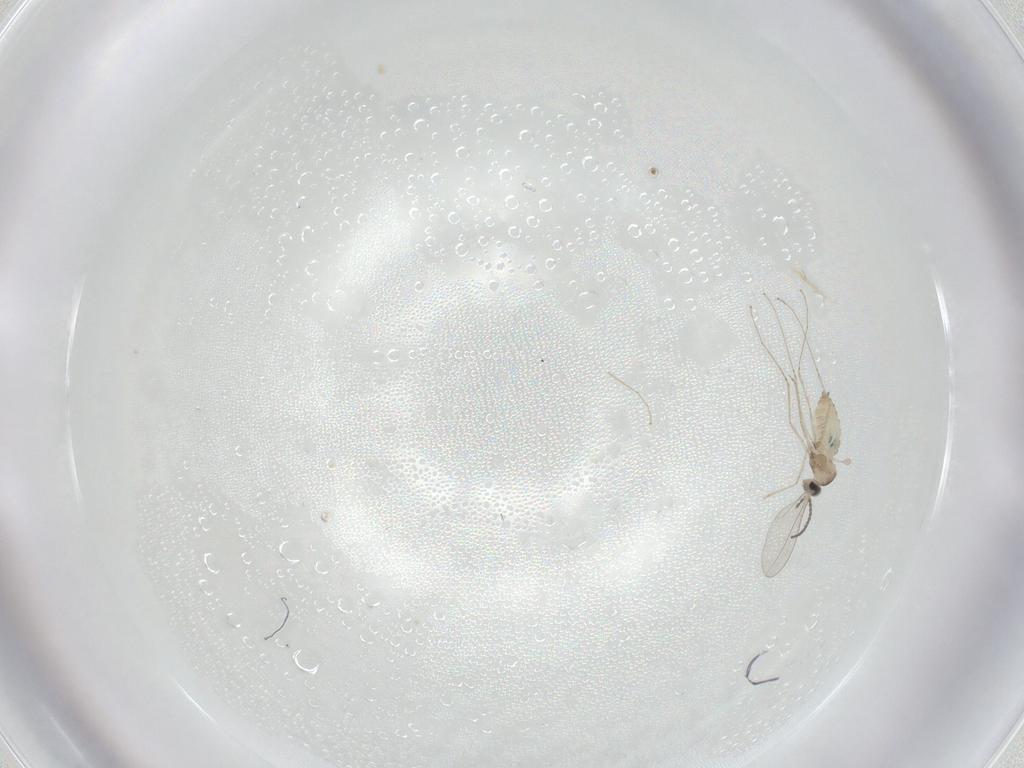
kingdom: Animalia
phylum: Arthropoda
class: Insecta
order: Diptera
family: Cecidomyiidae
